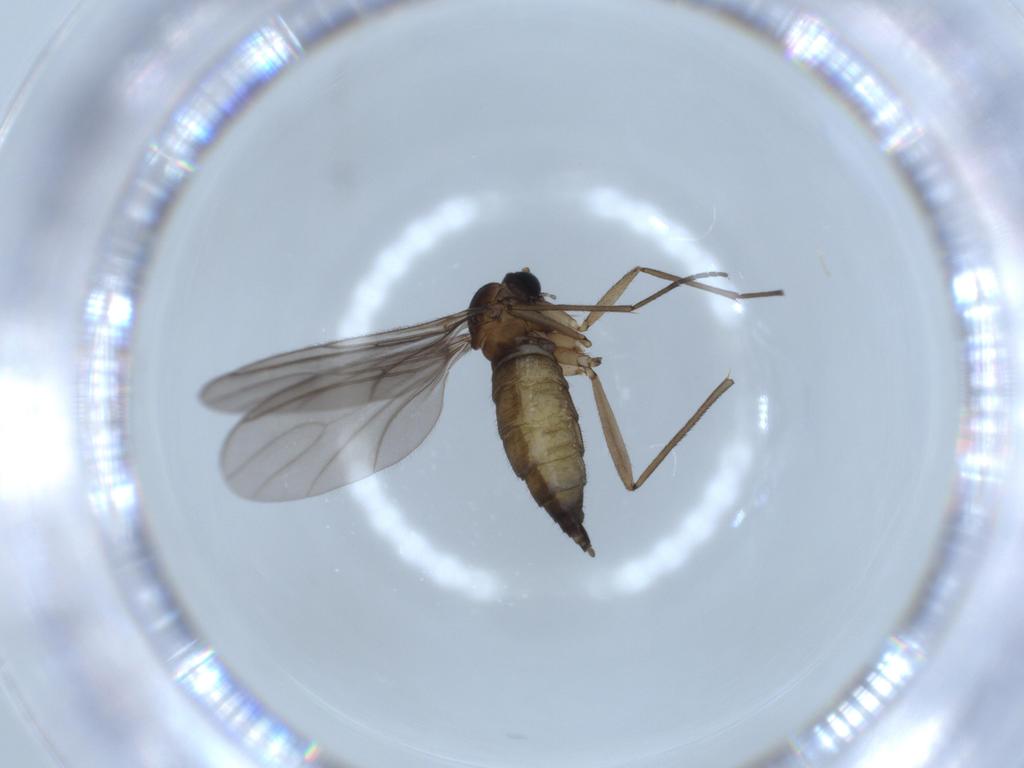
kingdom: Animalia
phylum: Arthropoda
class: Insecta
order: Diptera
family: Sciaridae
